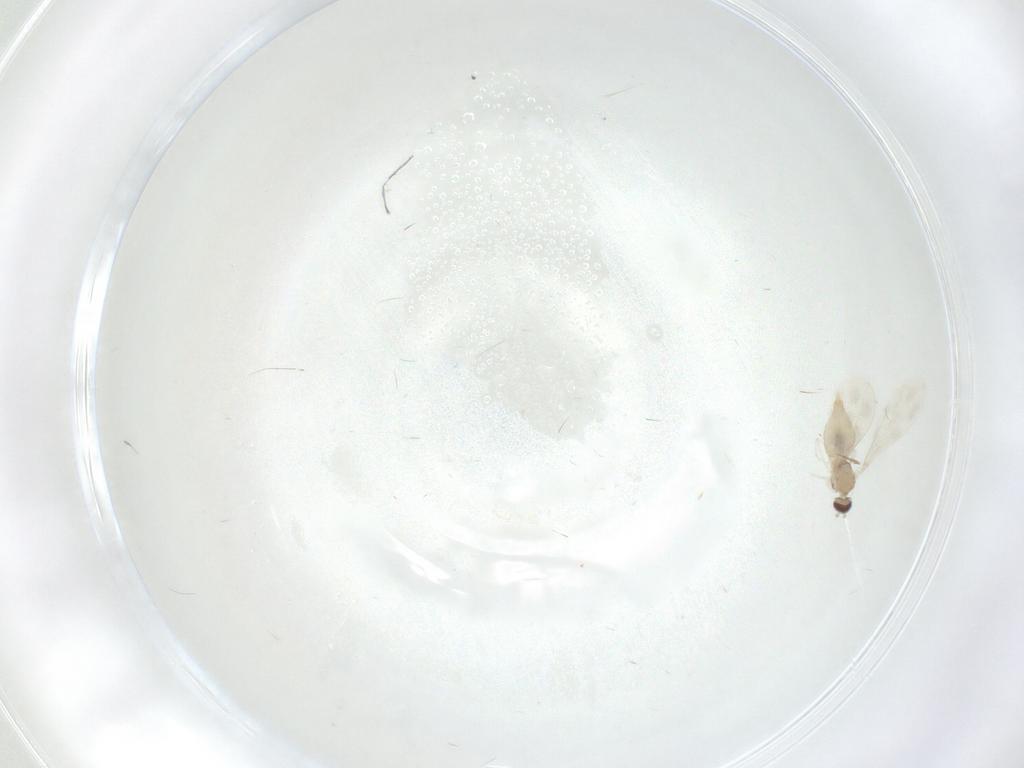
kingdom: Animalia
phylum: Arthropoda
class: Insecta
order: Diptera
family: Cecidomyiidae
